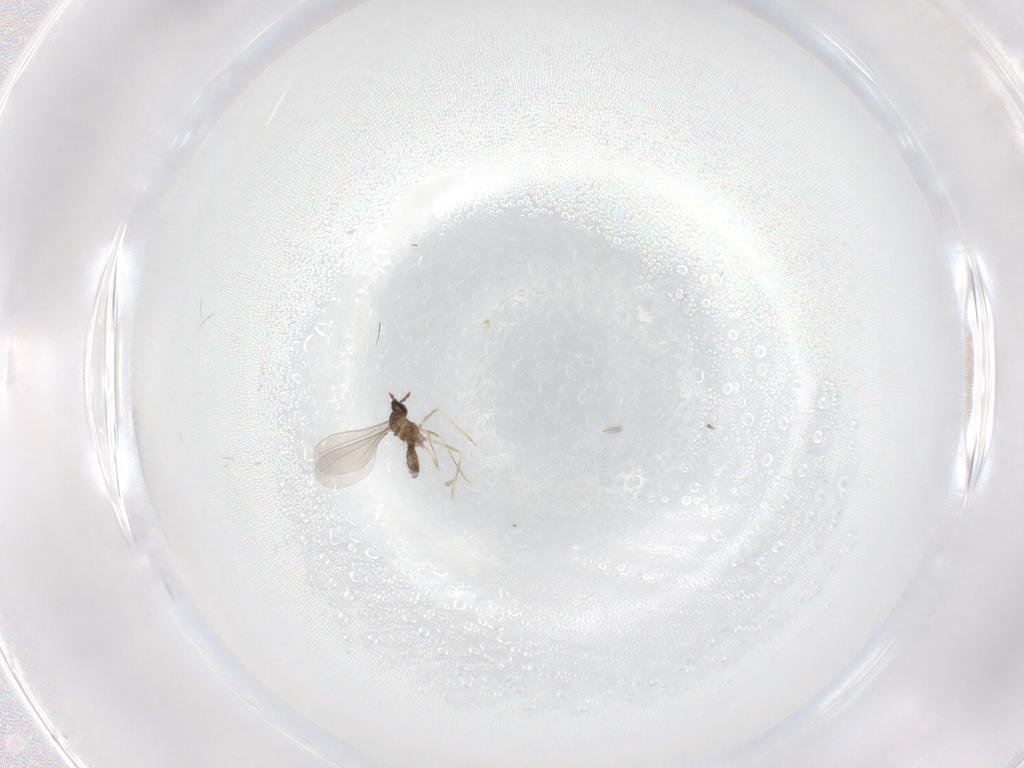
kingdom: Animalia
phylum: Arthropoda
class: Insecta
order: Diptera
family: Cecidomyiidae
